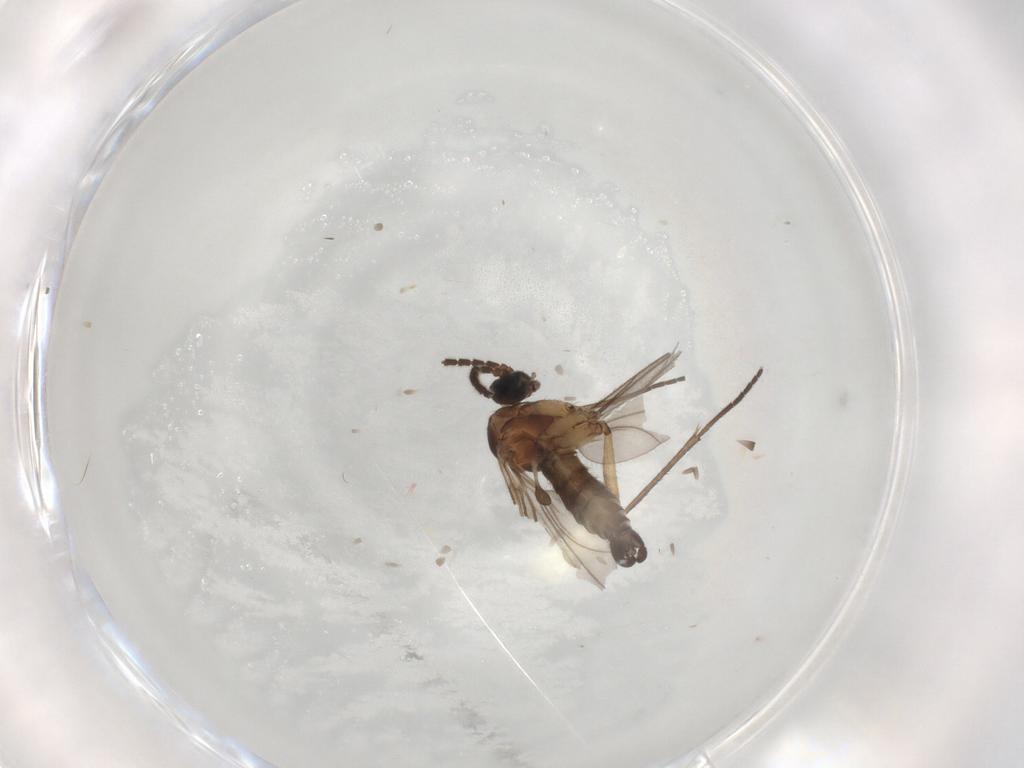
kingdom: Animalia
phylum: Arthropoda
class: Insecta
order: Diptera
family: Sciaridae
